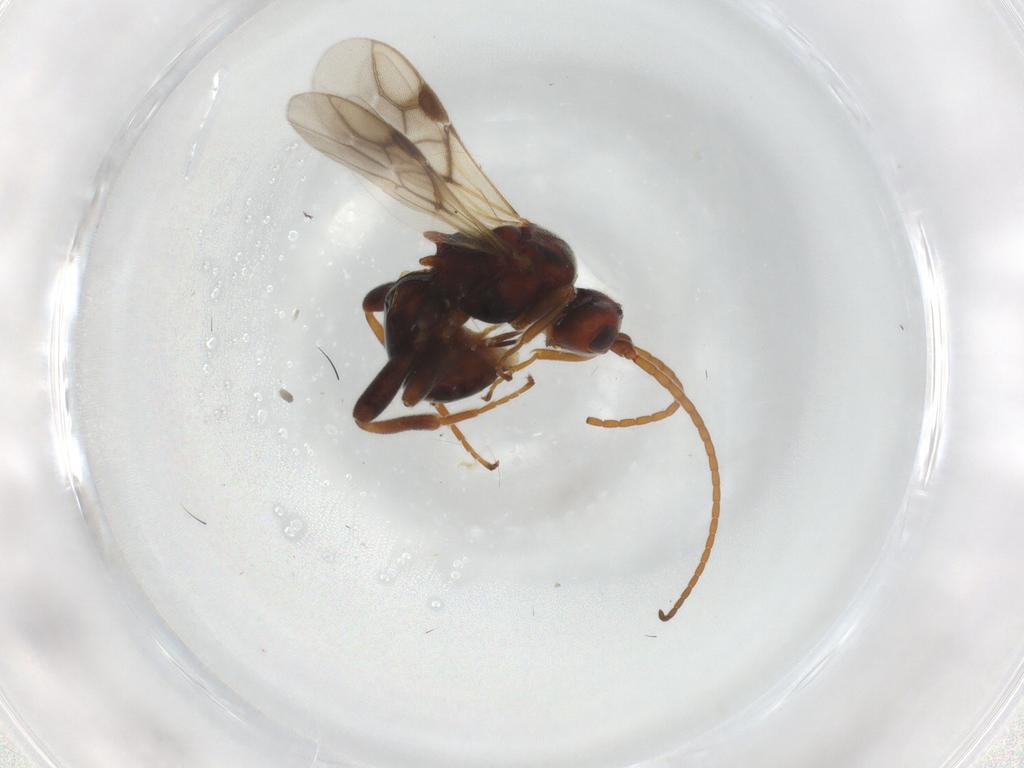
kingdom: Animalia
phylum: Arthropoda
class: Insecta
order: Hymenoptera
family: Braconidae
